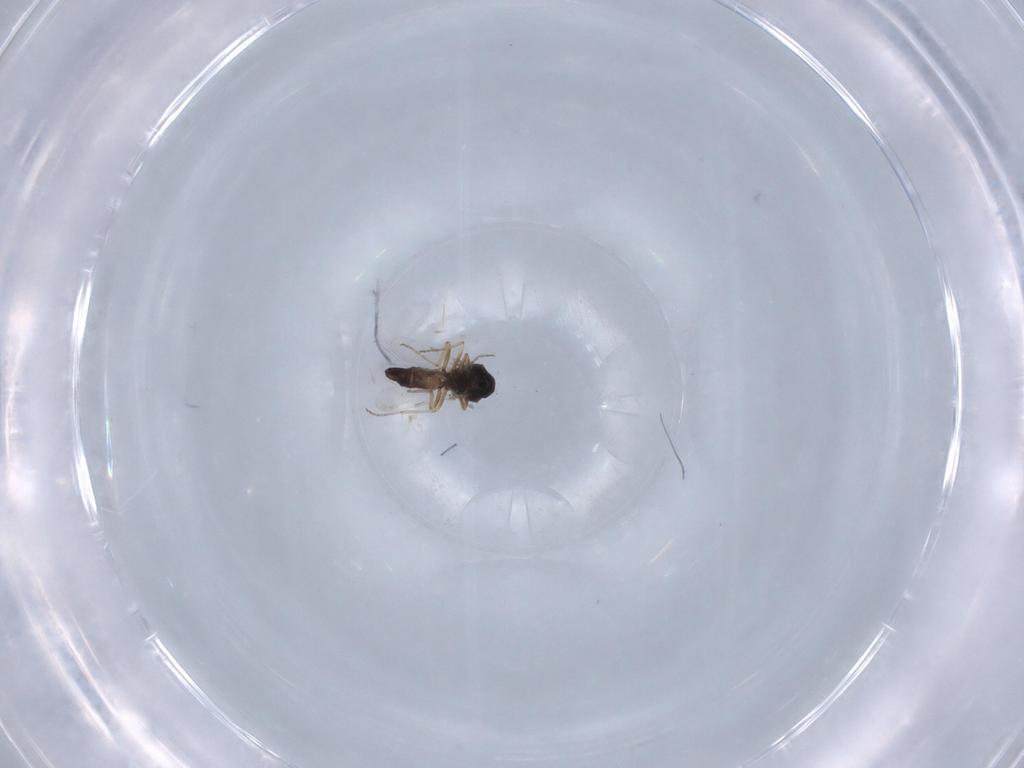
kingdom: Animalia
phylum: Arthropoda
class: Insecta
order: Diptera
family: Ceratopogonidae
